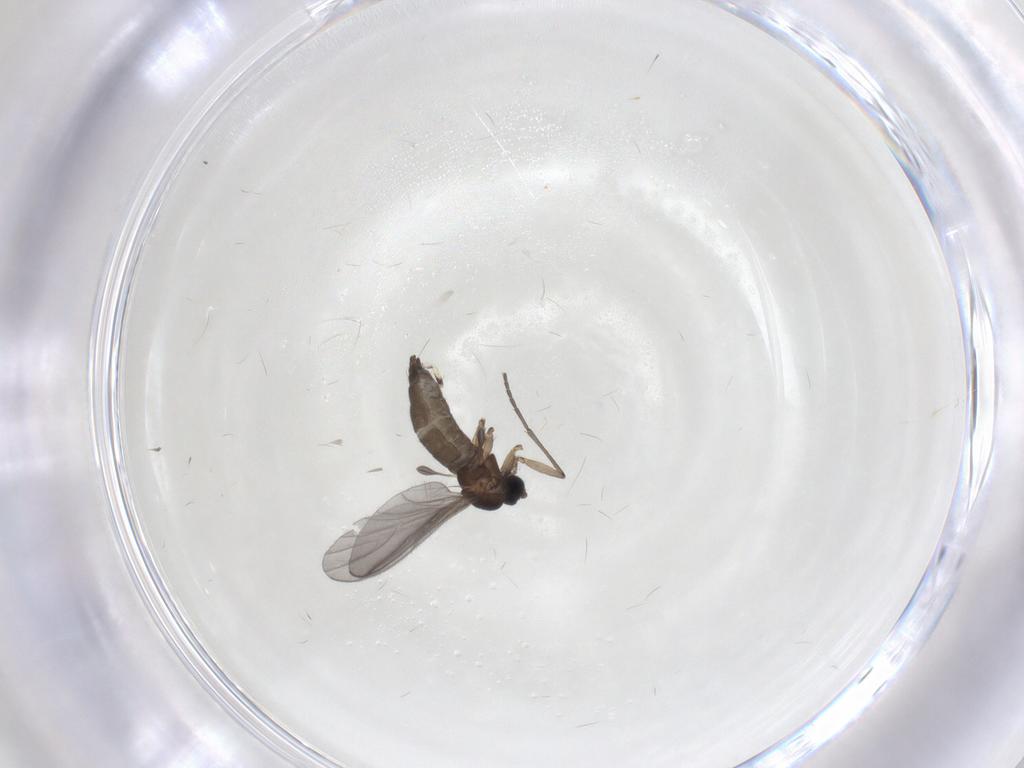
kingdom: Animalia
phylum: Arthropoda
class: Insecta
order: Diptera
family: Sciaridae
